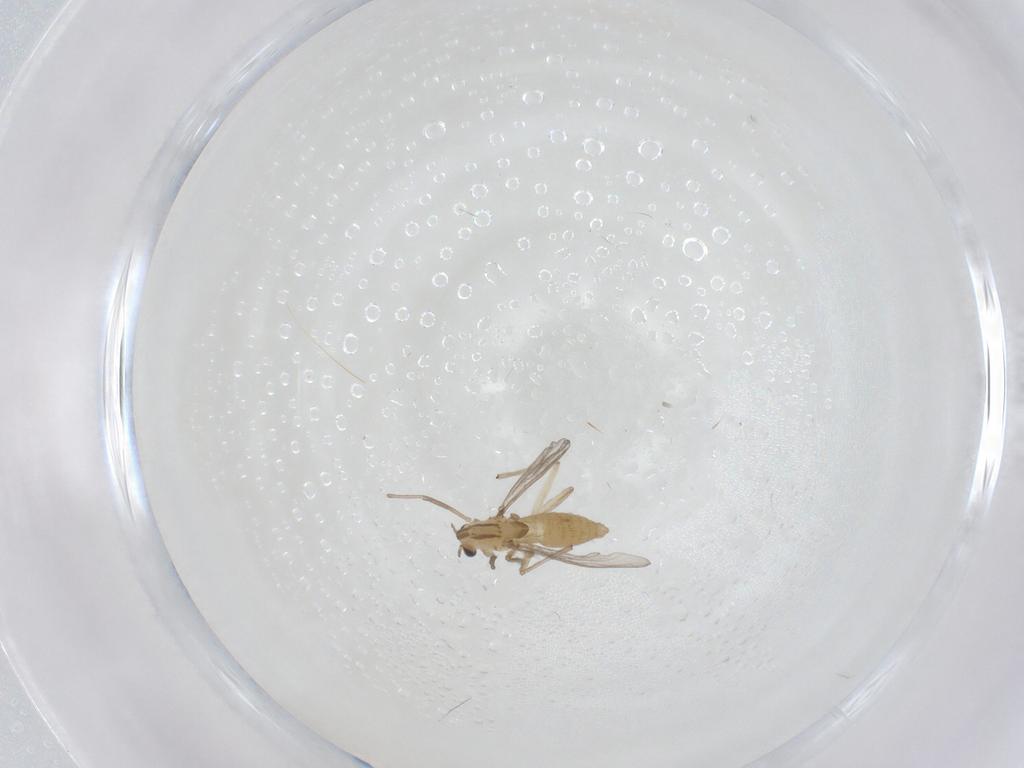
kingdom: Animalia
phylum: Arthropoda
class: Insecta
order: Diptera
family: Chironomidae
